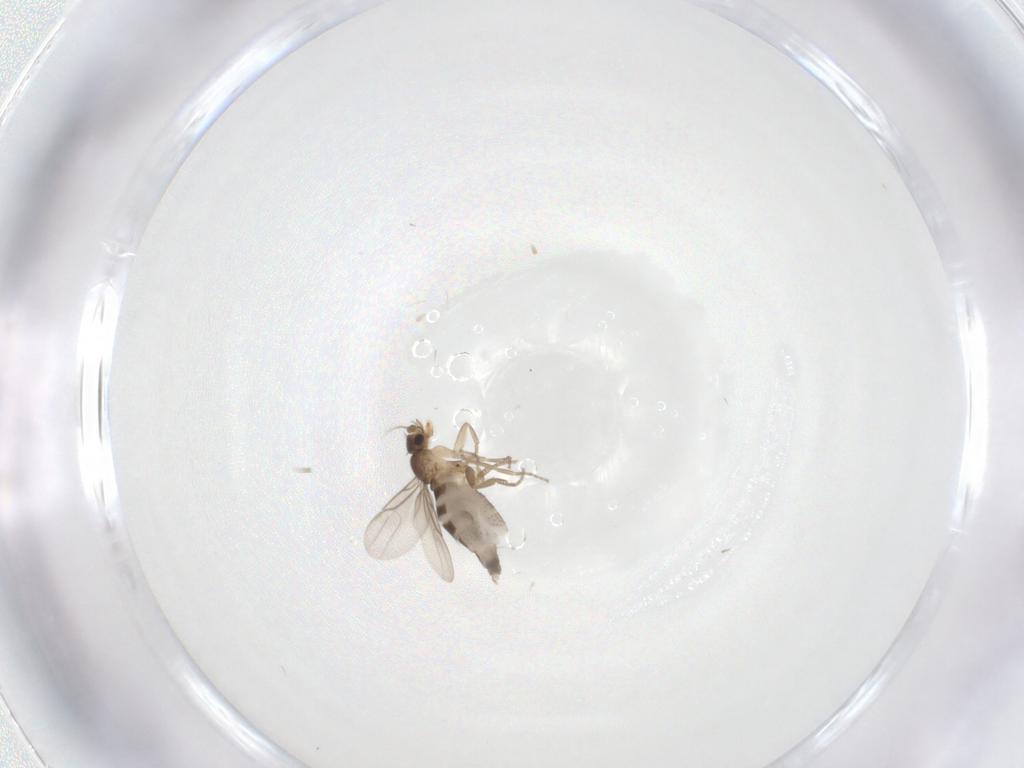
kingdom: Animalia
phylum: Arthropoda
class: Insecta
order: Diptera
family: Phoridae
